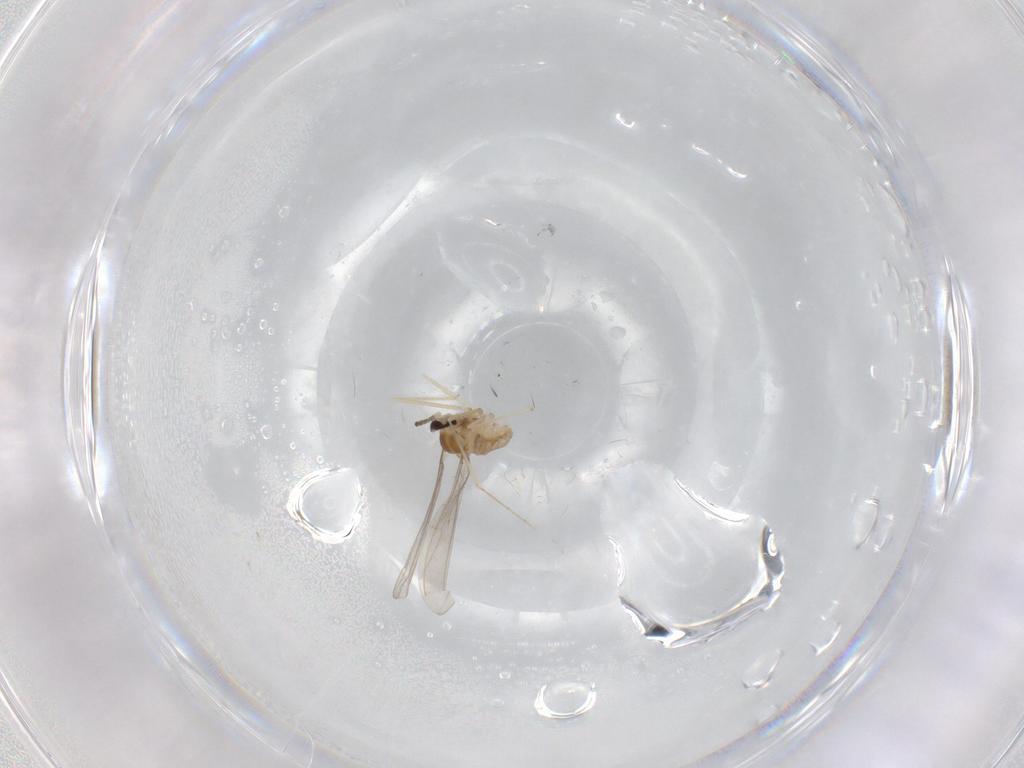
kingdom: Animalia
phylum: Arthropoda
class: Insecta
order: Diptera
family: Cecidomyiidae
